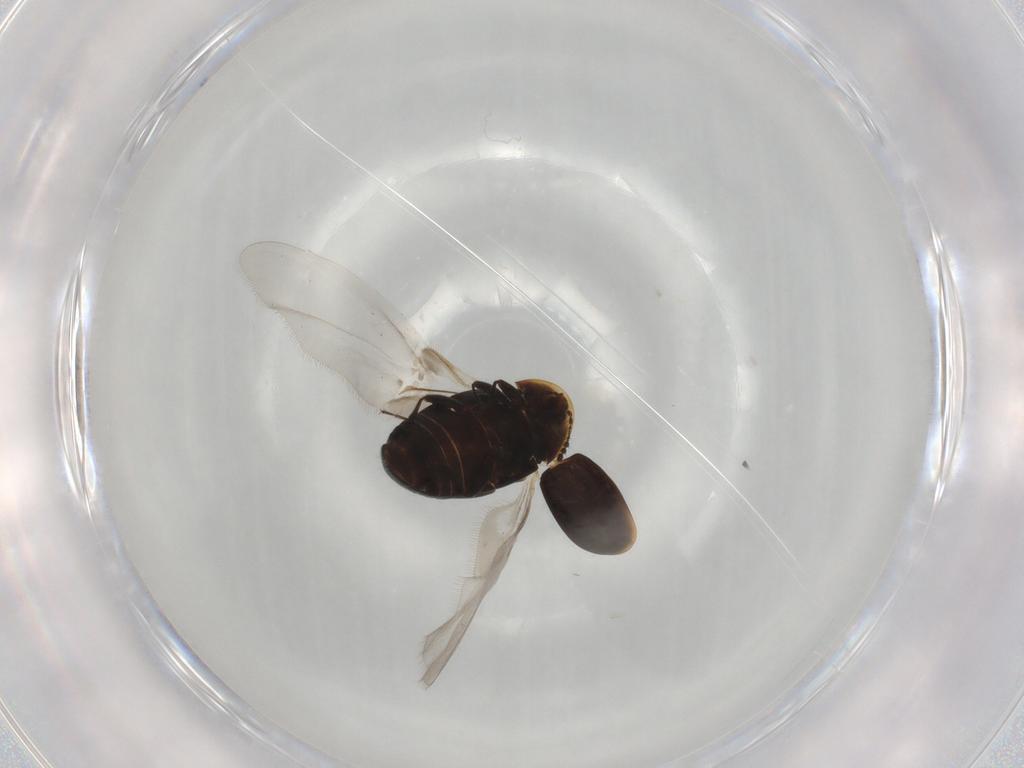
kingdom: Animalia
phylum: Arthropoda
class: Insecta
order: Coleoptera
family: Corylophidae
